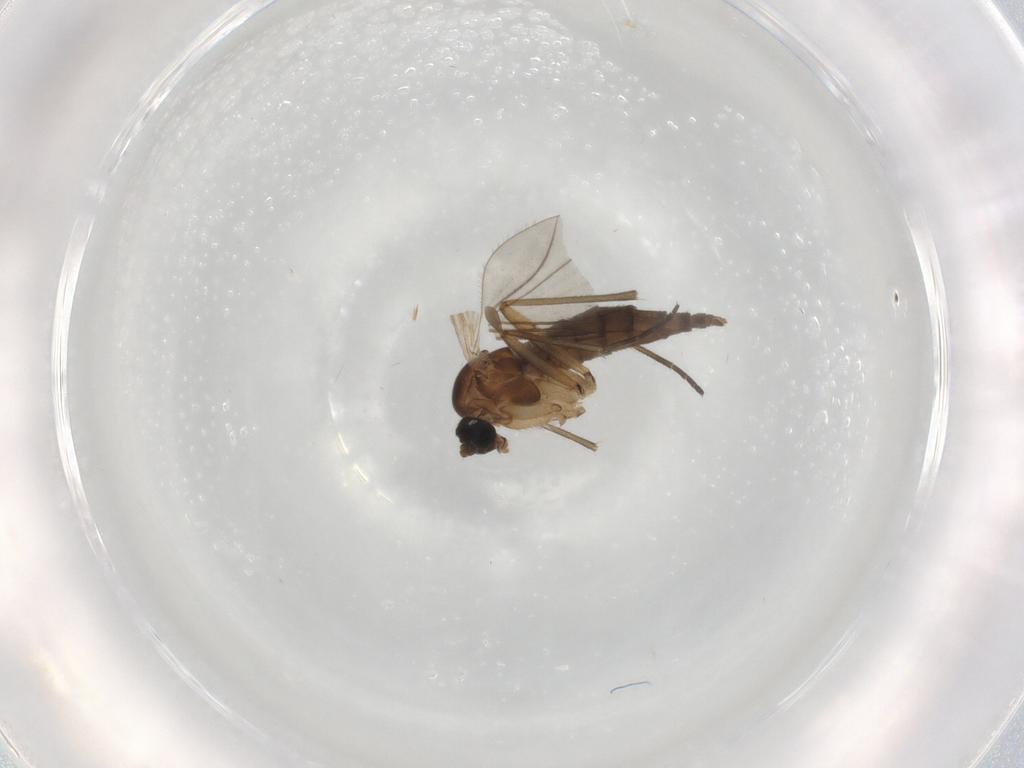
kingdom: Animalia
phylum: Arthropoda
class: Insecta
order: Diptera
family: Sciaridae
